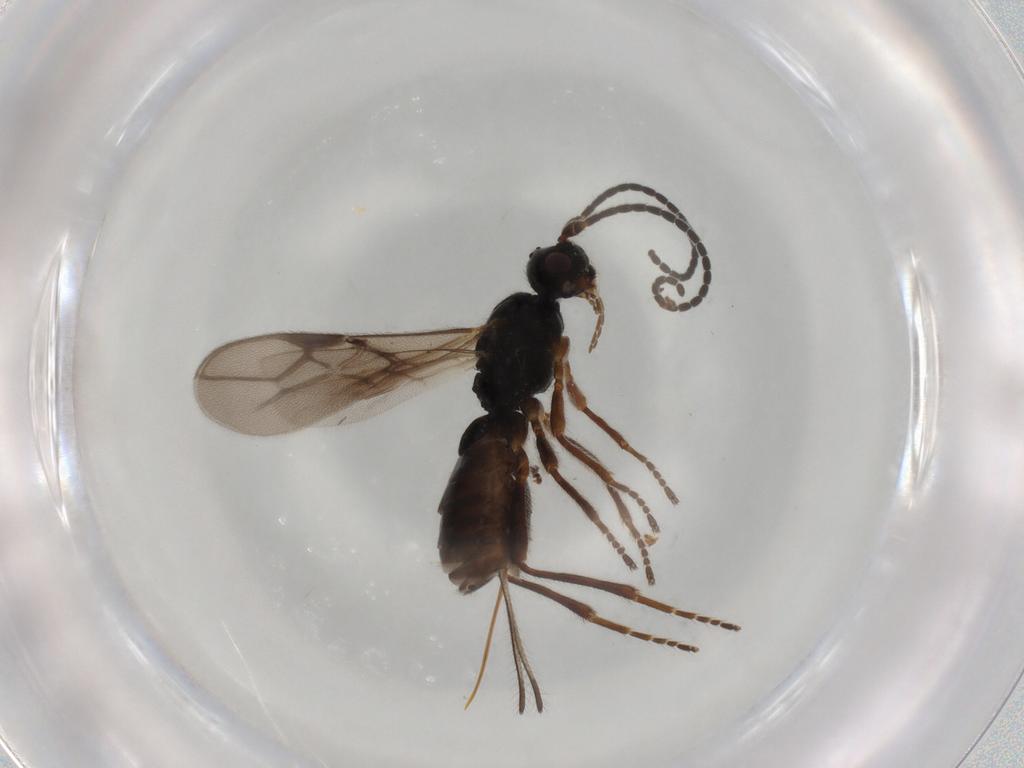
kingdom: Animalia
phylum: Arthropoda
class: Insecta
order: Hymenoptera
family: Braconidae
